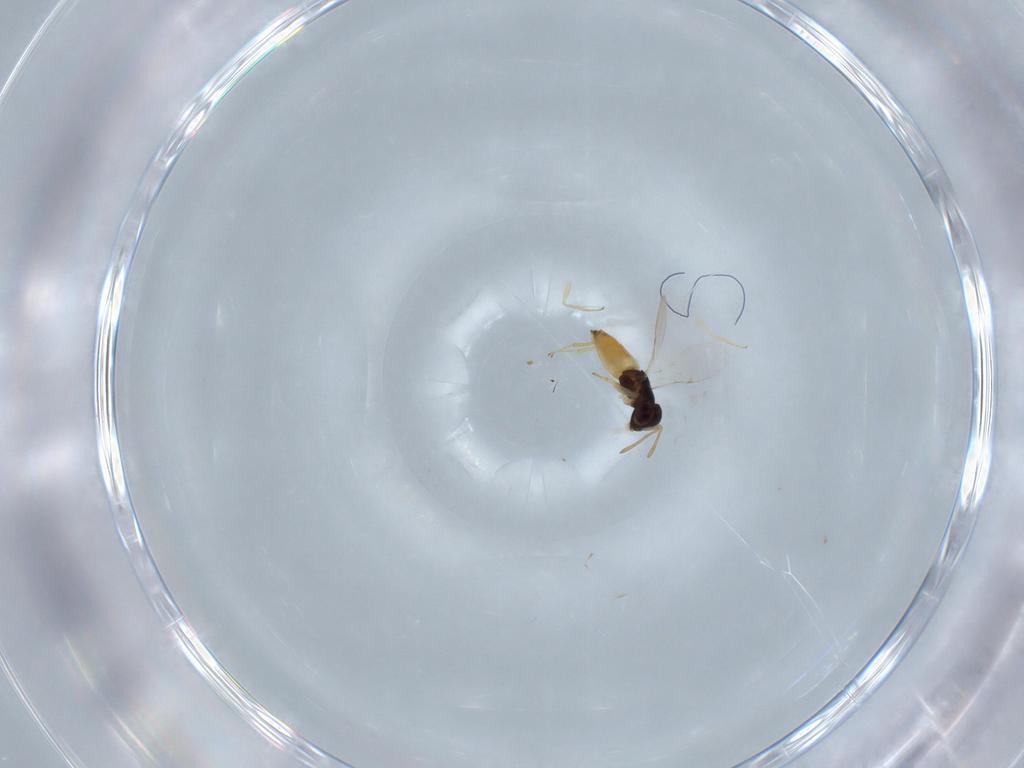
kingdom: Animalia
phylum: Arthropoda
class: Insecta
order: Hymenoptera
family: Encyrtidae
